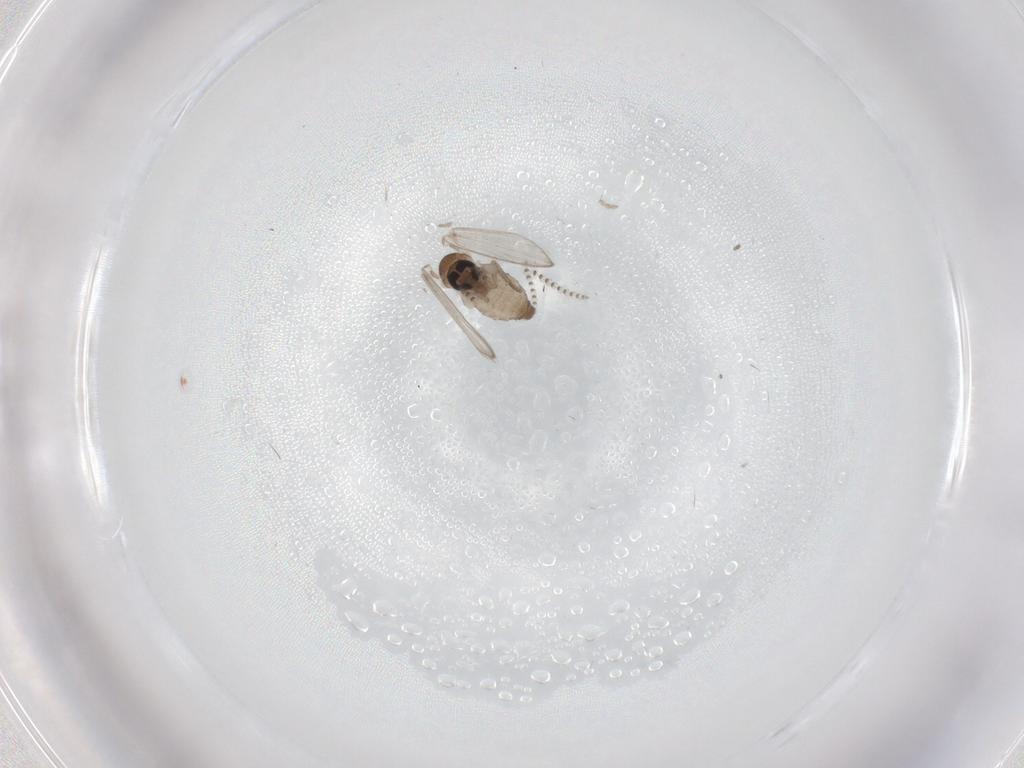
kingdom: Animalia
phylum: Arthropoda
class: Insecta
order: Diptera
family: Psychodidae
